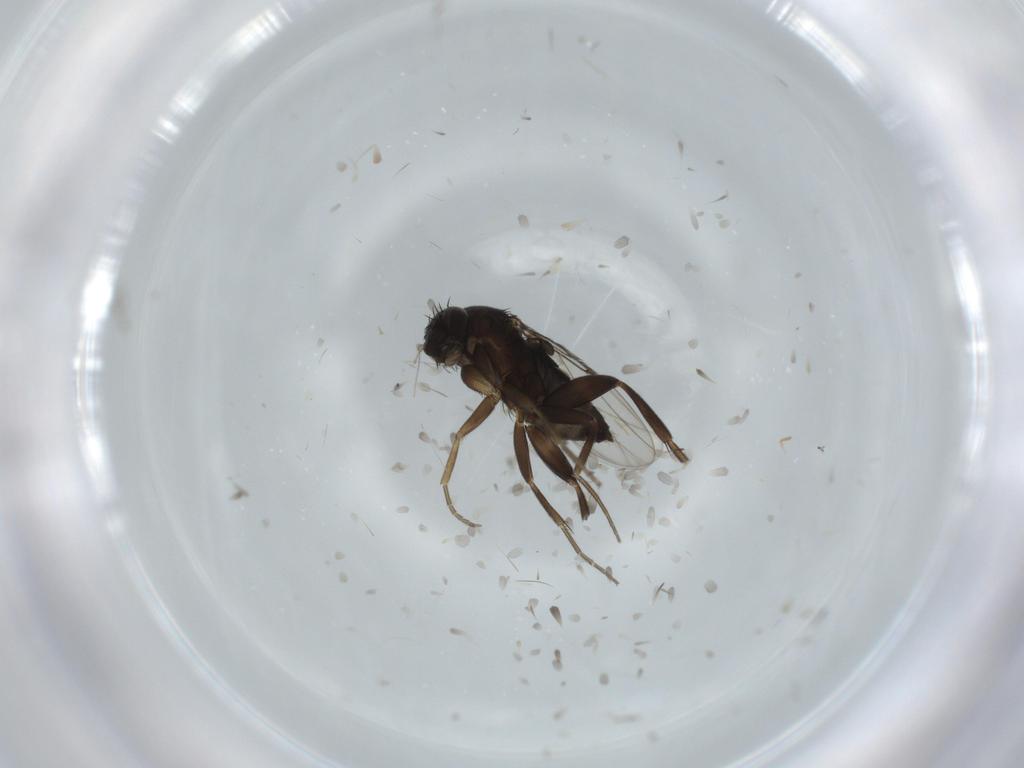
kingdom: Animalia
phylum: Arthropoda
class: Insecta
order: Diptera
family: Phoridae
